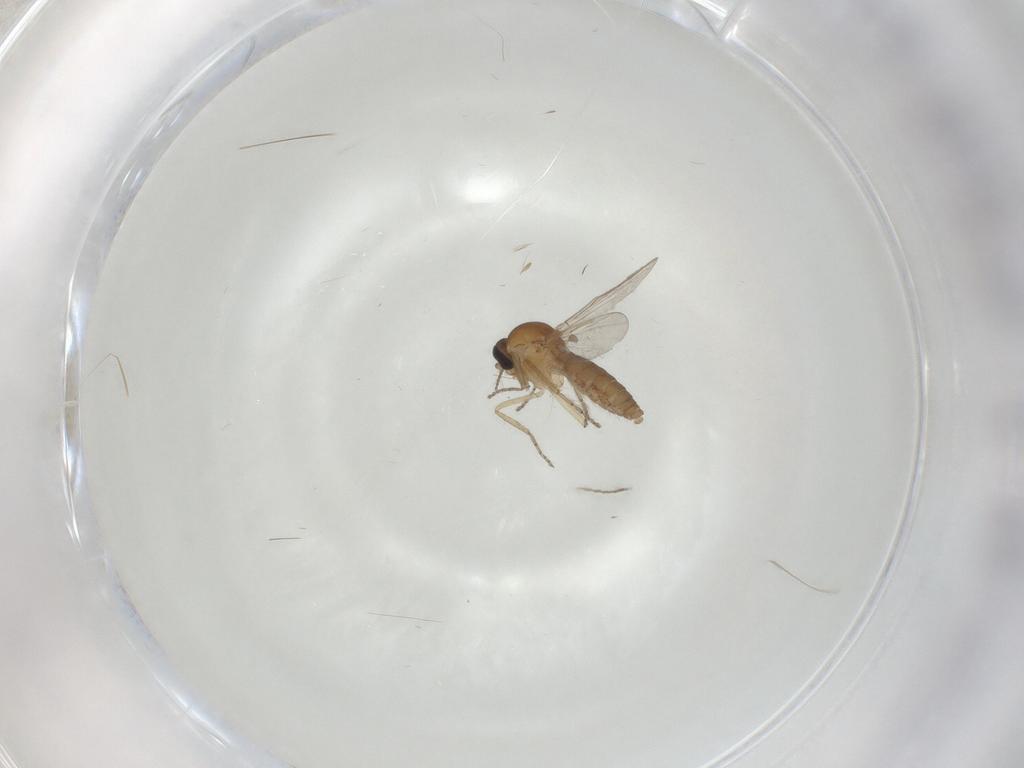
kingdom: Animalia
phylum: Arthropoda
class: Insecta
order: Diptera
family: Ceratopogonidae
